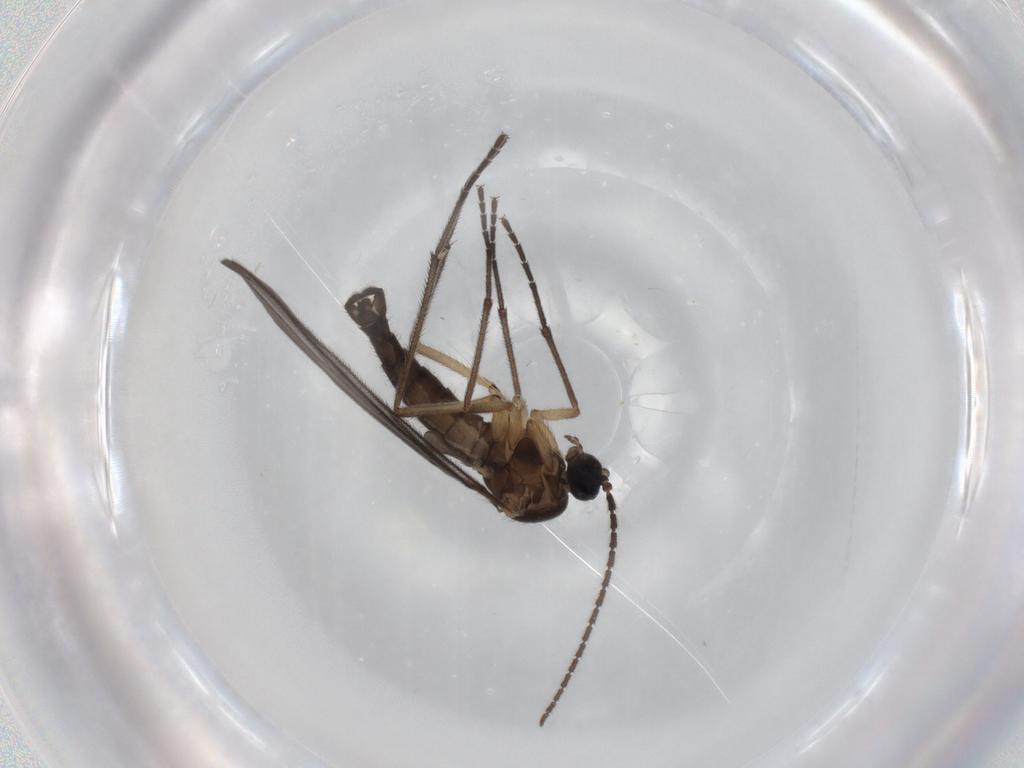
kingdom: Animalia
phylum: Arthropoda
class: Insecta
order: Diptera
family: Sciaridae
